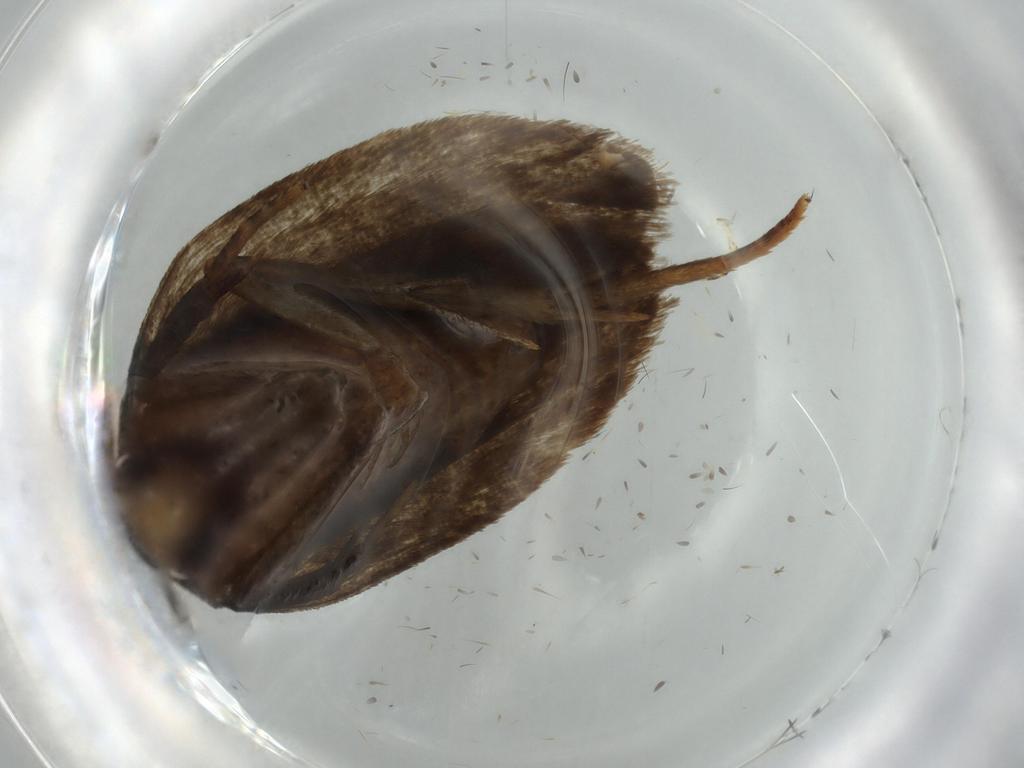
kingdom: Animalia
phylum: Arthropoda
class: Insecta
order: Lepidoptera
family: Autostichidae
